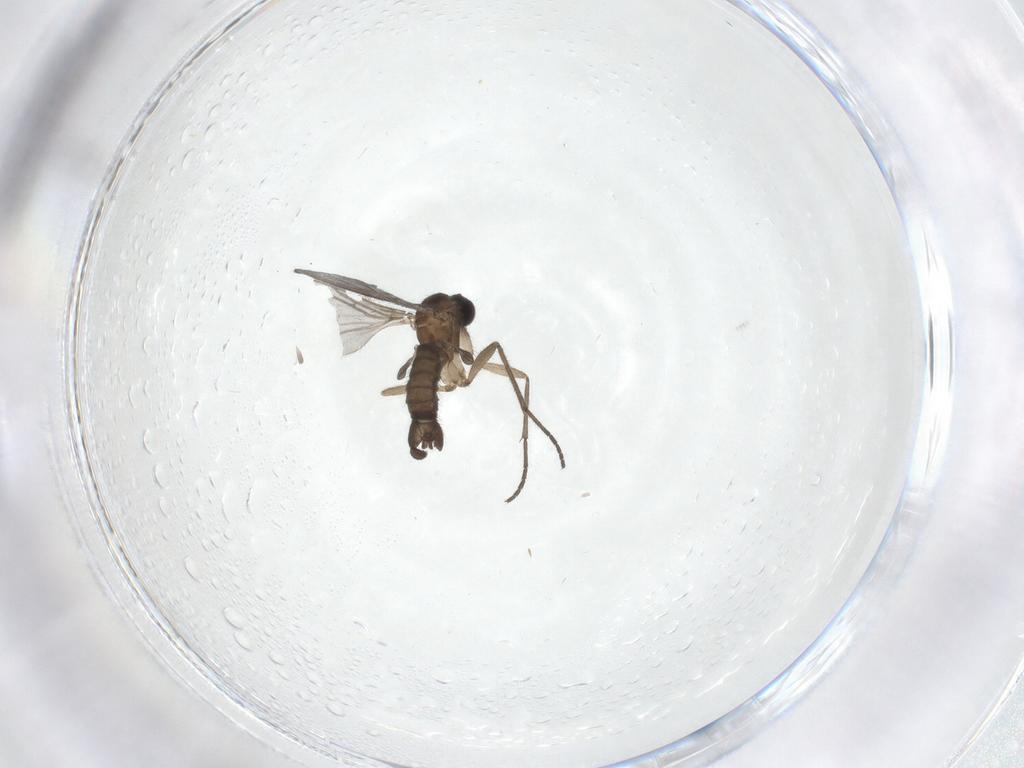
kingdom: Animalia
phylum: Arthropoda
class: Insecta
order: Diptera
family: Sciaridae
